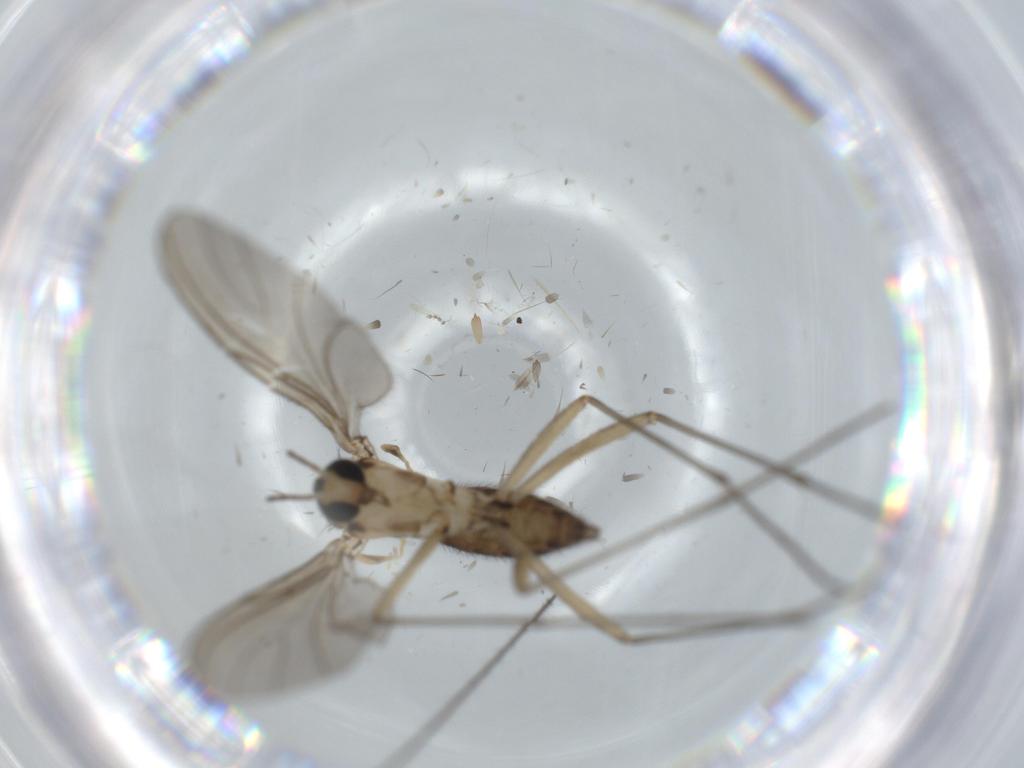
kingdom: Animalia
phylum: Arthropoda
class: Insecta
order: Diptera
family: Sciaridae
